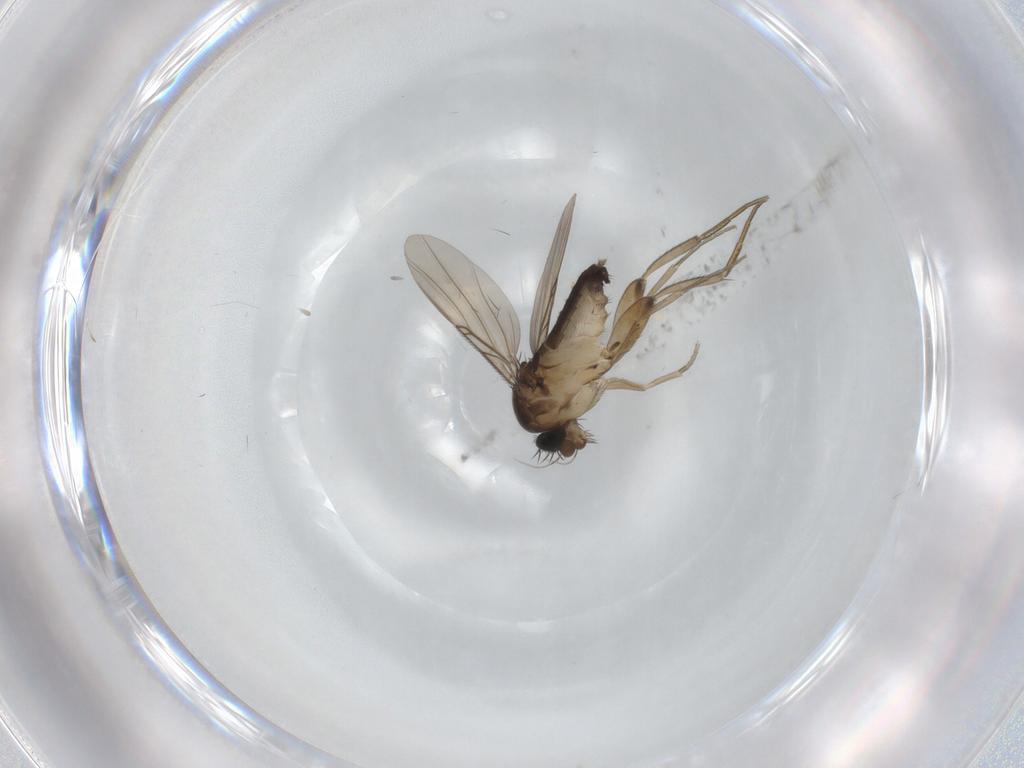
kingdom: Animalia
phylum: Arthropoda
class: Insecta
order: Diptera
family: Phoridae
